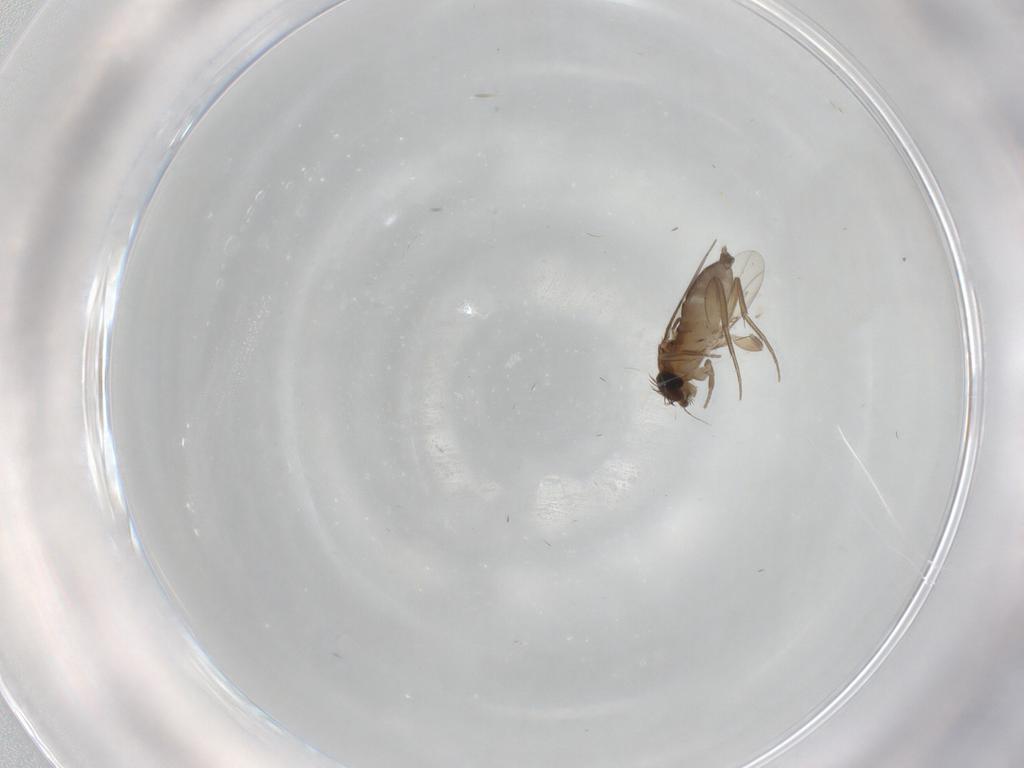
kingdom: Animalia
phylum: Arthropoda
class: Insecta
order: Diptera
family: Phoridae
